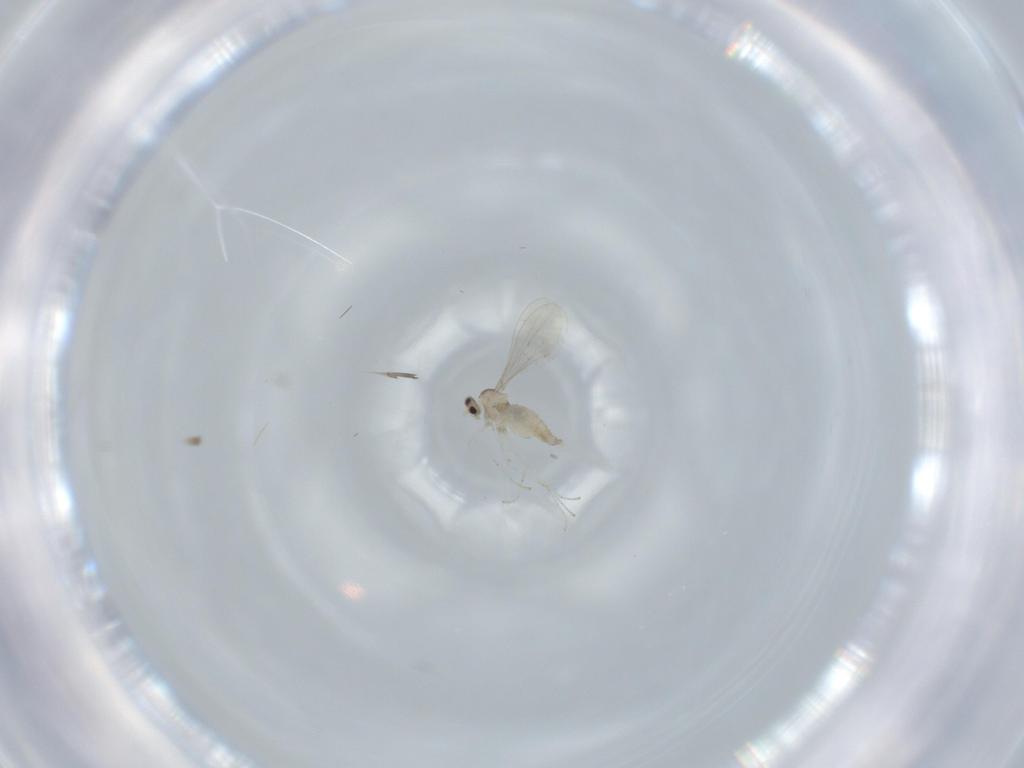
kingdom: Animalia
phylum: Arthropoda
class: Insecta
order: Diptera
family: Cecidomyiidae
